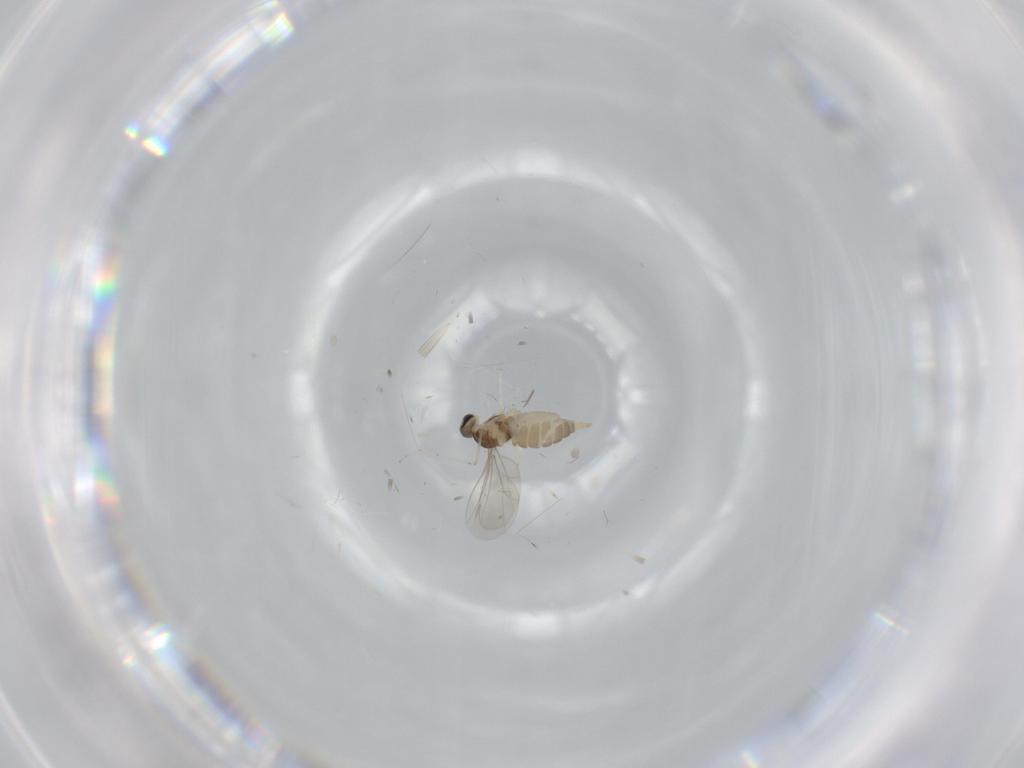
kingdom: Animalia
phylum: Arthropoda
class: Insecta
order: Diptera
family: Cecidomyiidae
